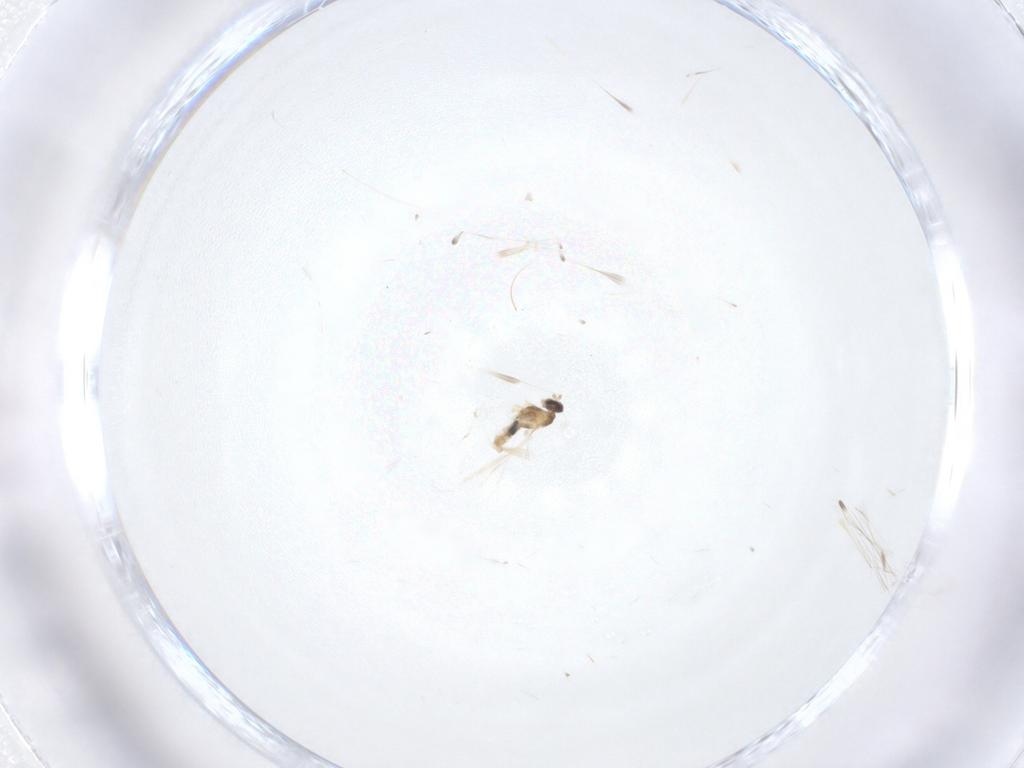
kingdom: Animalia
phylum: Arthropoda
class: Insecta
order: Diptera
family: Cecidomyiidae
